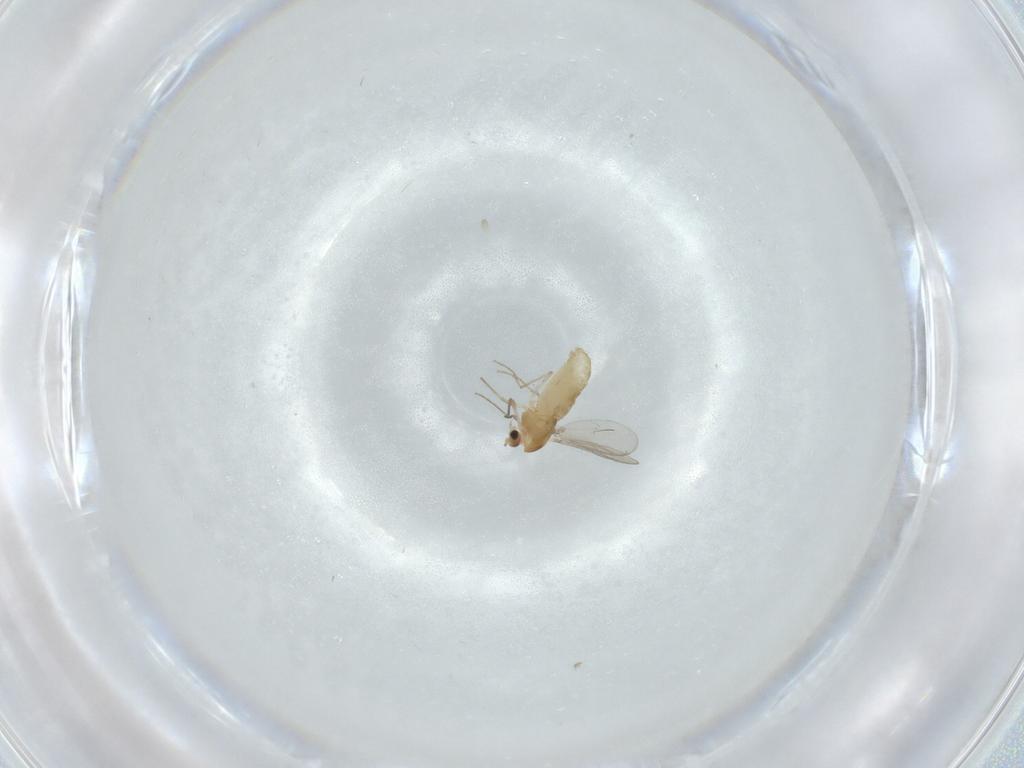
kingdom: Animalia
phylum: Arthropoda
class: Insecta
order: Diptera
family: Chironomidae
